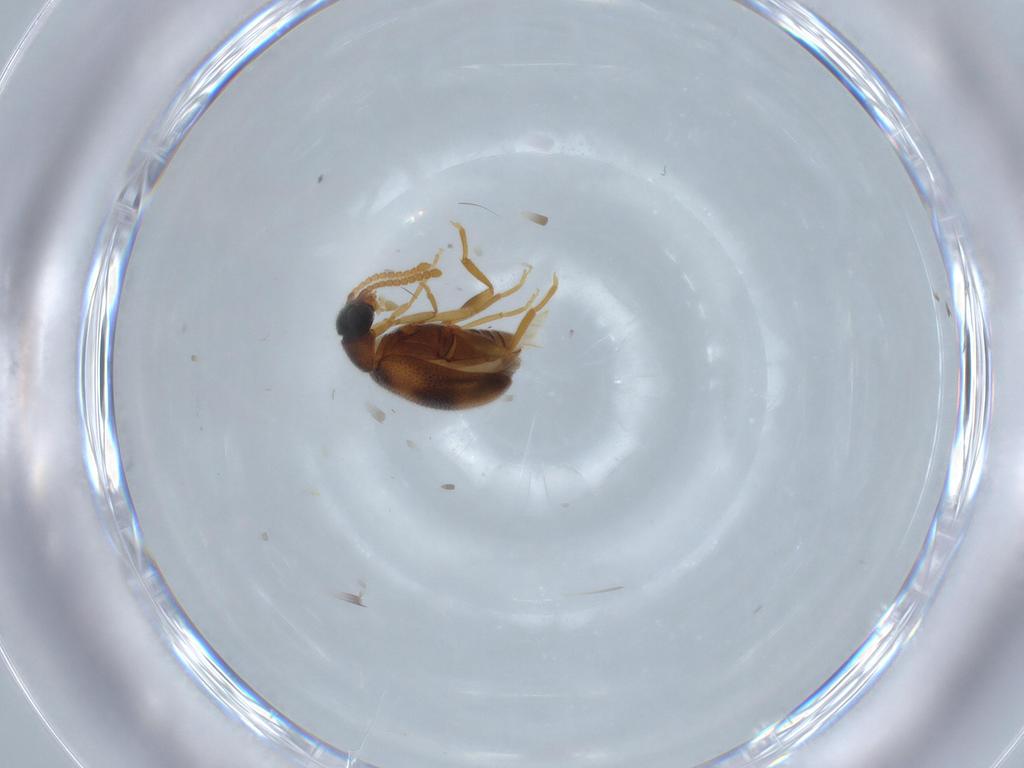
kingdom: Animalia
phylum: Arthropoda
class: Insecta
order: Coleoptera
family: Aderidae
